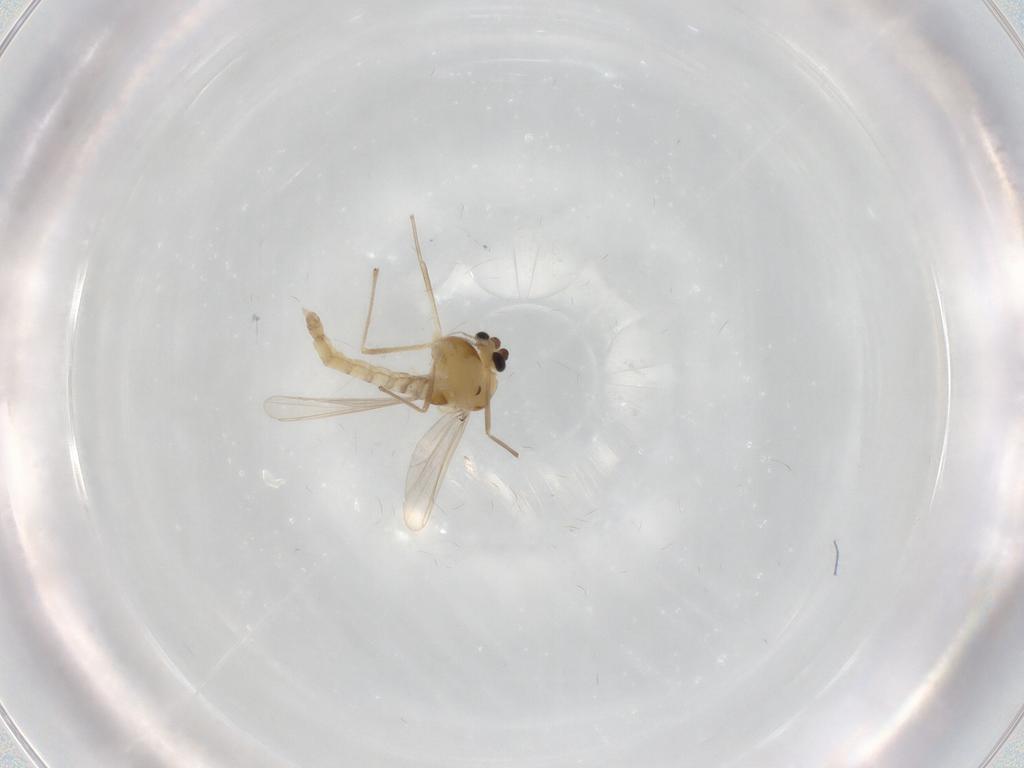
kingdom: Animalia
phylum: Arthropoda
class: Insecta
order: Diptera
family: Chironomidae
